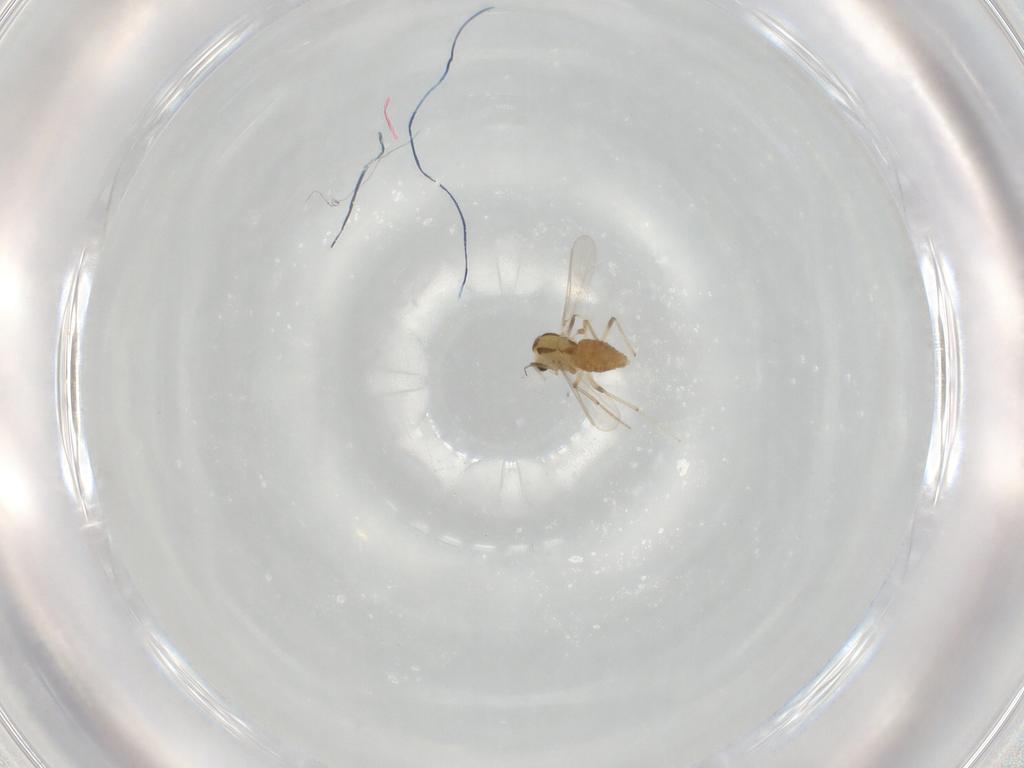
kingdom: Animalia
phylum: Arthropoda
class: Insecta
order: Diptera
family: Chironomidae
